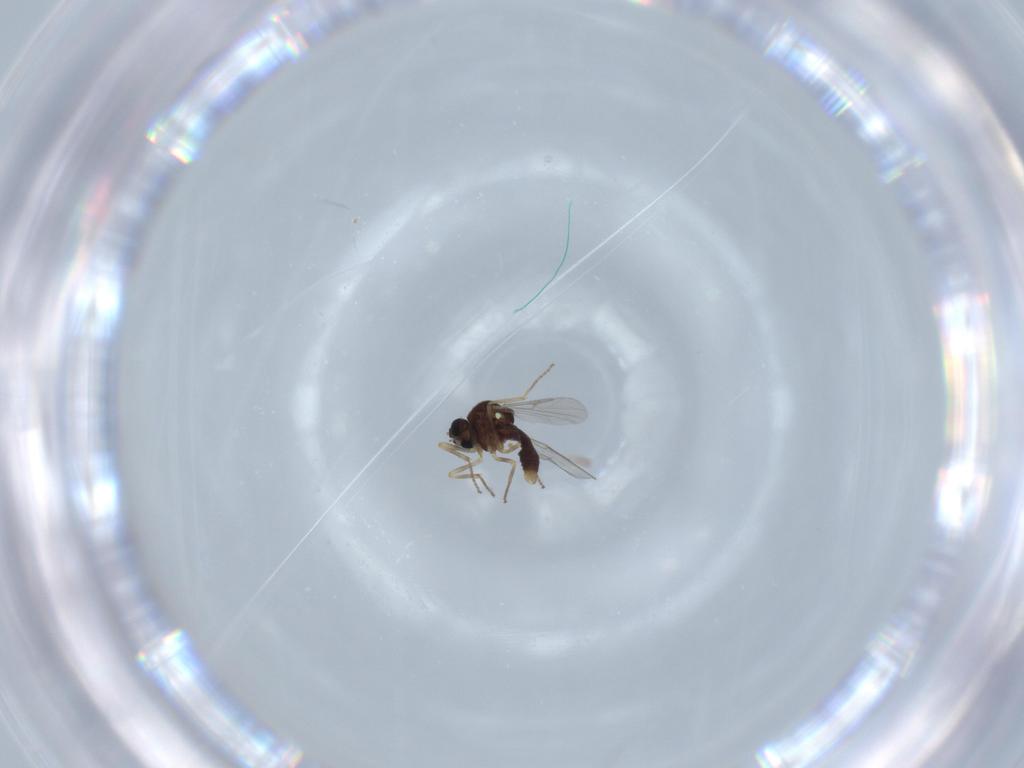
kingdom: Animalia
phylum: Arthropoda
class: Insecta
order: Diptera
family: Ceratopogonidae
